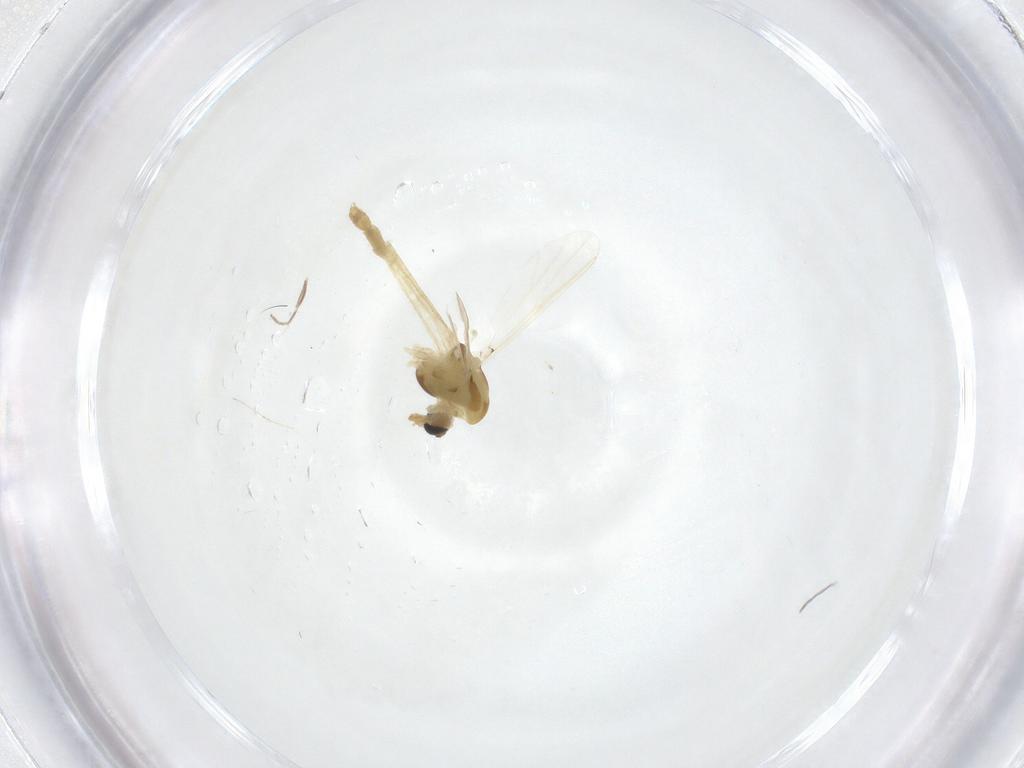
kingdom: Animalia
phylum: Arthropoda
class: Insecta
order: Diptera
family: Phoridae
